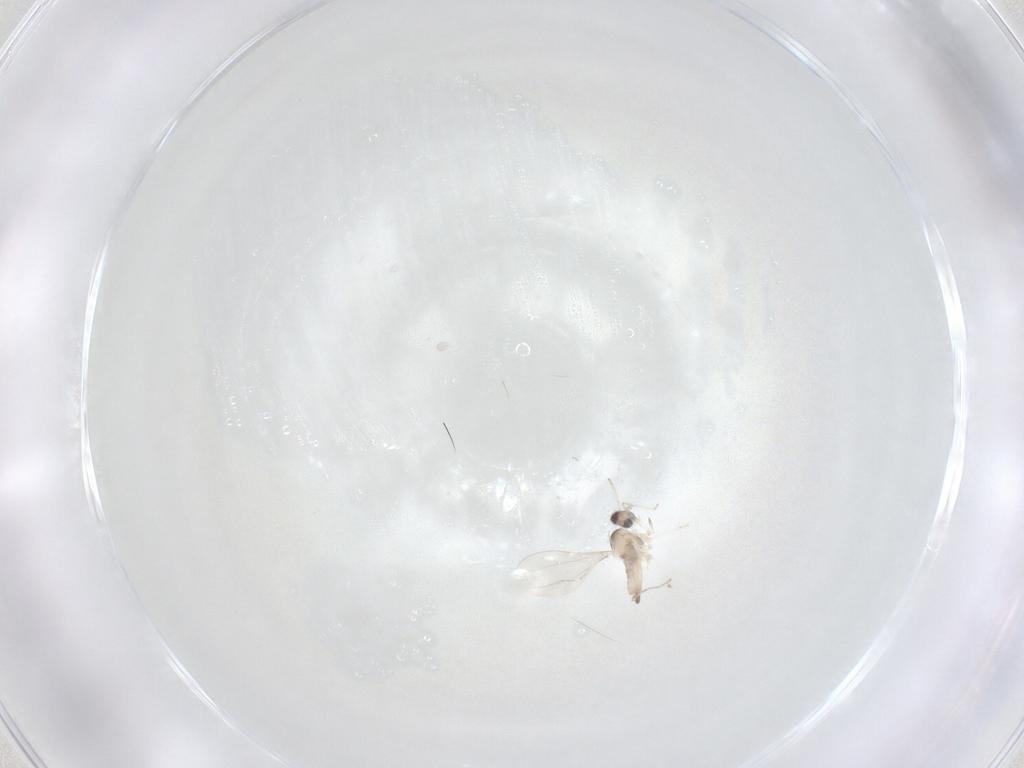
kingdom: Animalia
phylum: Arthropoda
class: Insecta
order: Diptera
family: Cecidomyiidae
